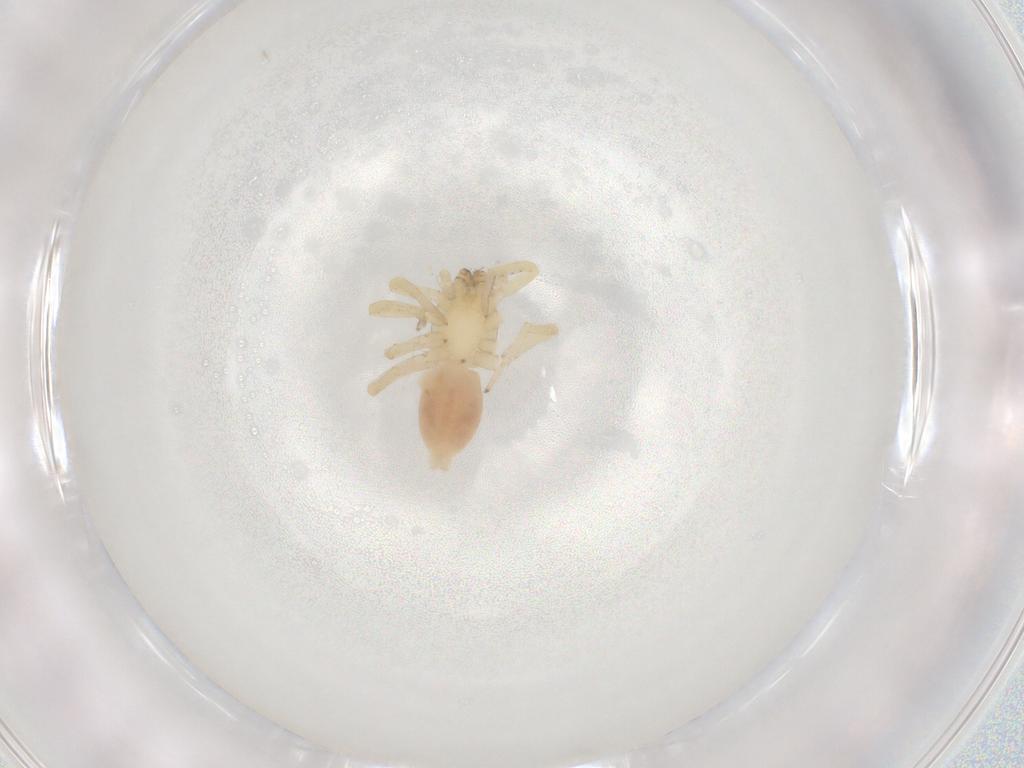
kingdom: Animalia
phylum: Arthropoda
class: Arachnida
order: Araneae
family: Clubionidae
